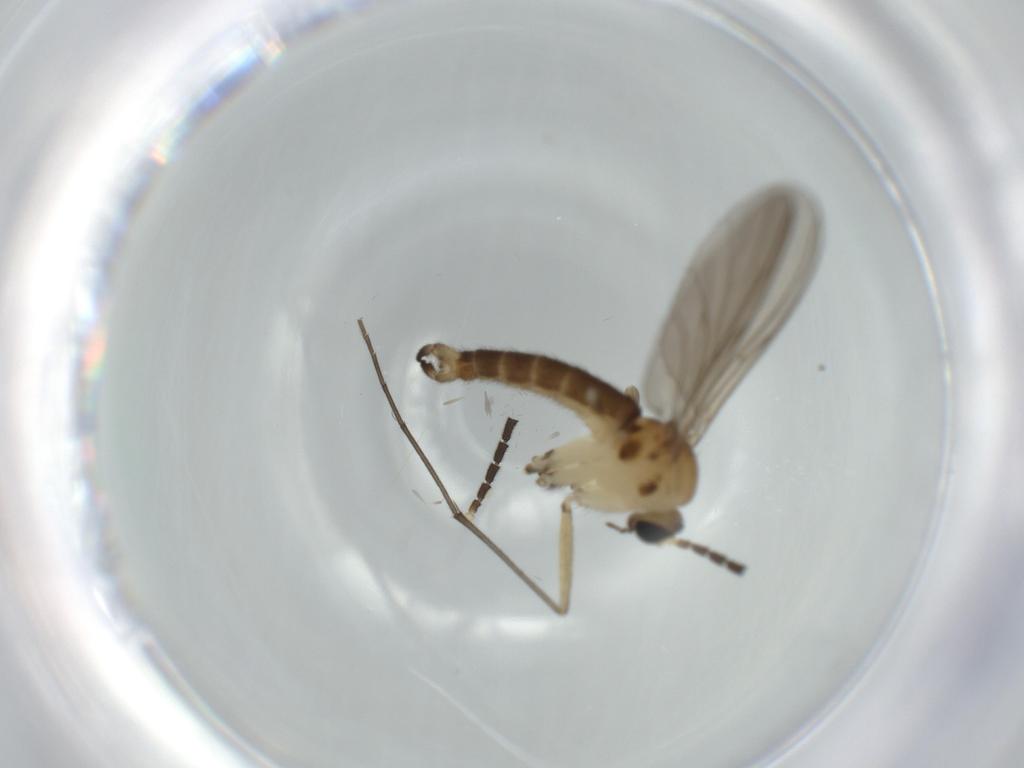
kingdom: Animalia
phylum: Arthropoda
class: Insecta
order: Diptera
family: Sciaridae
